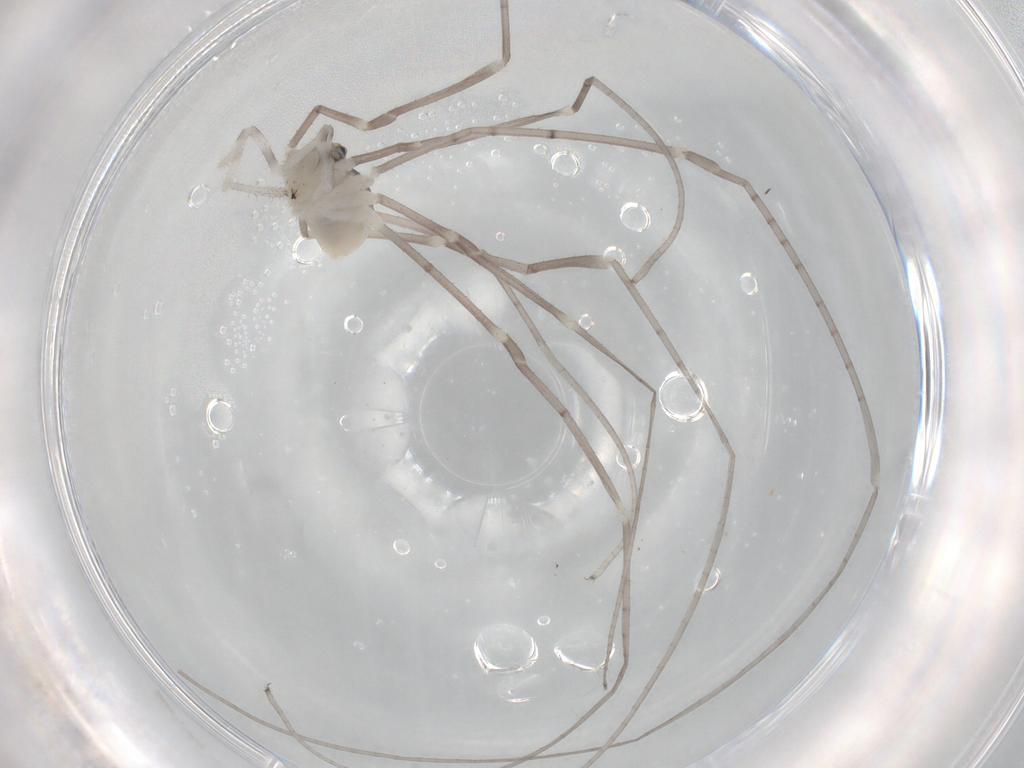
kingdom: Animalia
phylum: Arthropoda
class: Arachnida
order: Opiliones
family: Sclerosomatidae
